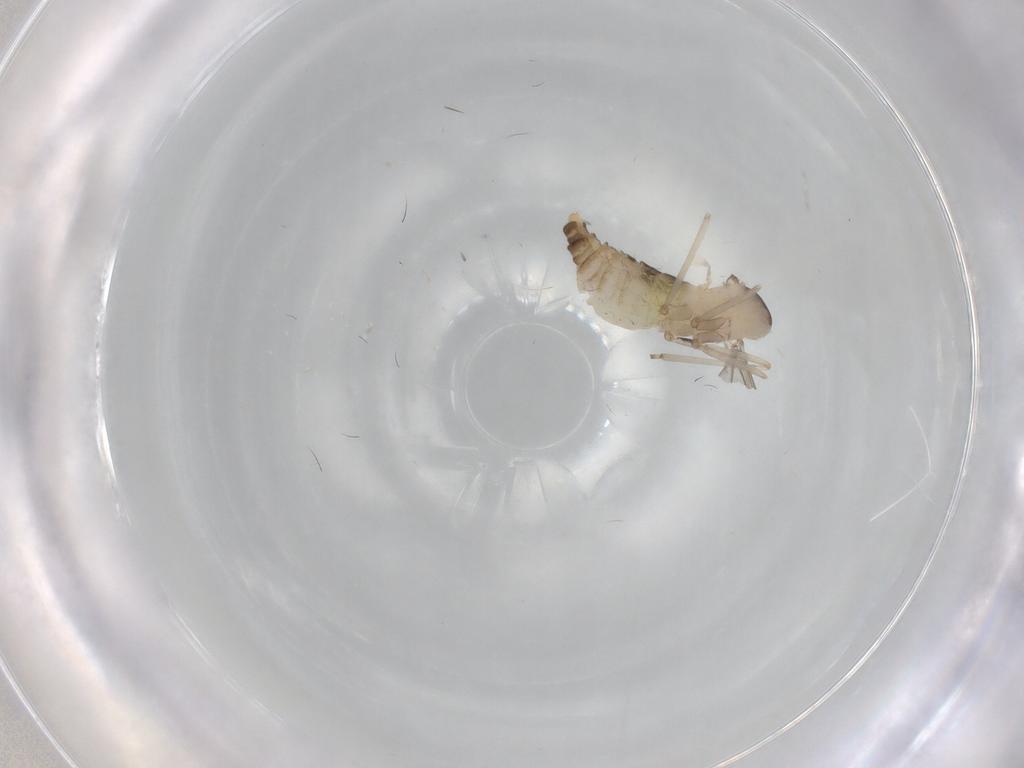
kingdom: Animalia
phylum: Arthropoda
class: Insecta
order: Diptera
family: Cecidomyiidae
